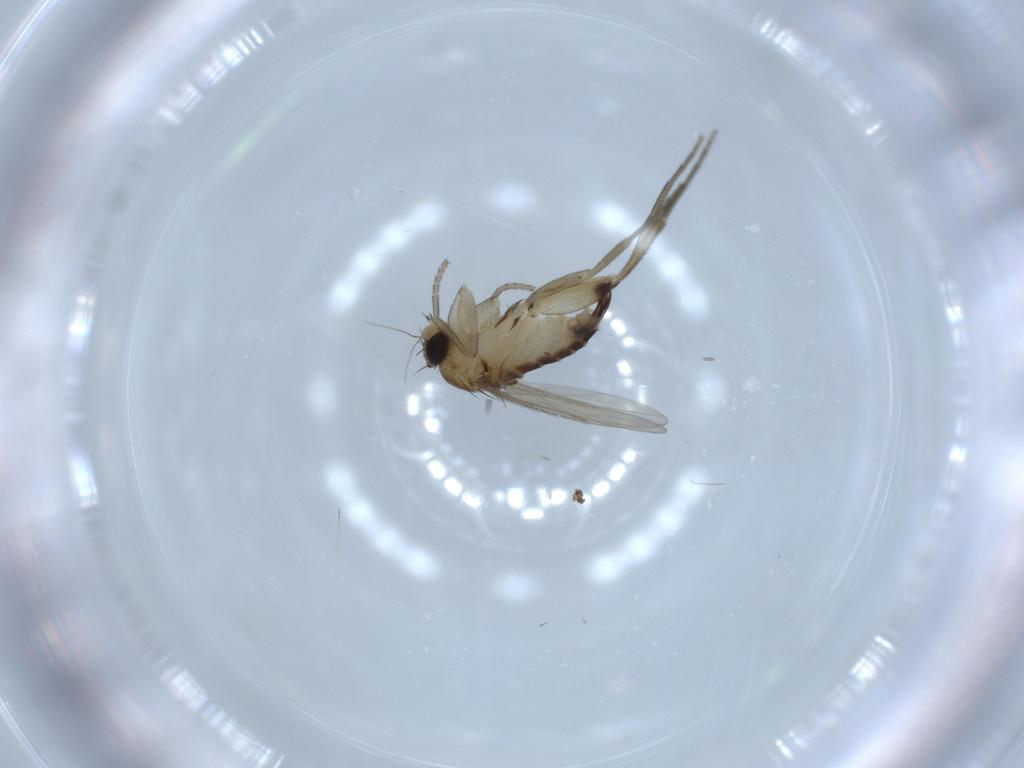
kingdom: Animalia
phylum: Arthropoda
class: Insecta
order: Diptera
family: Phoridae
